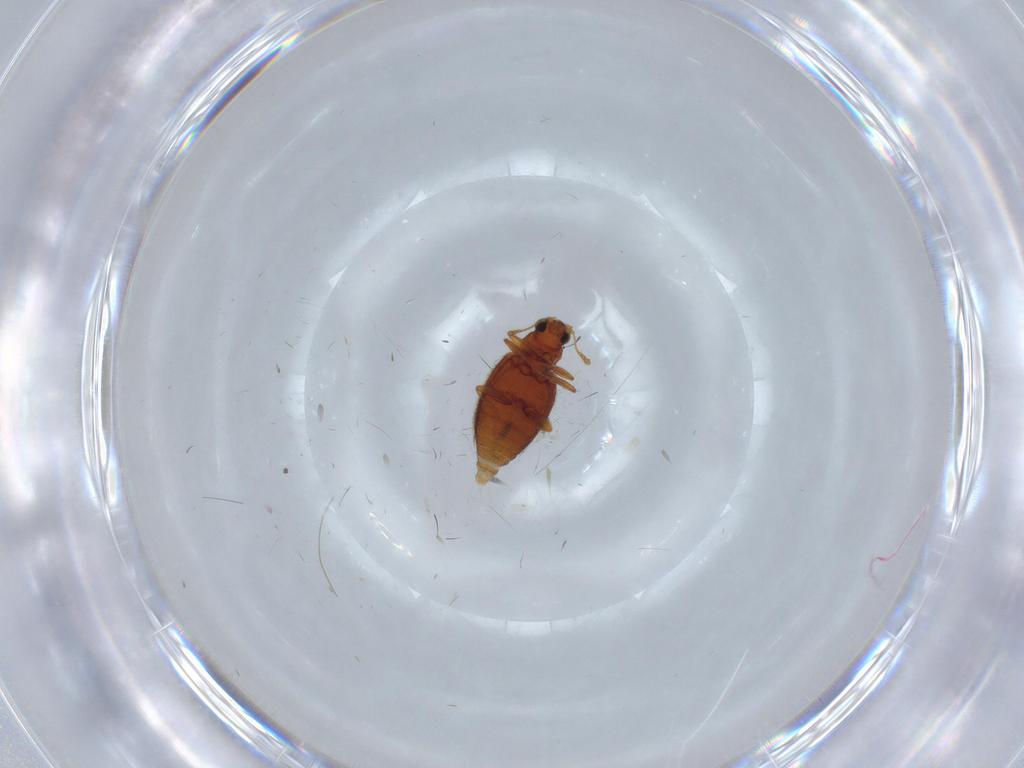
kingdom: Animalia
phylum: Arthropoda
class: Insecta
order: Coleoptera
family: Latridiidae
